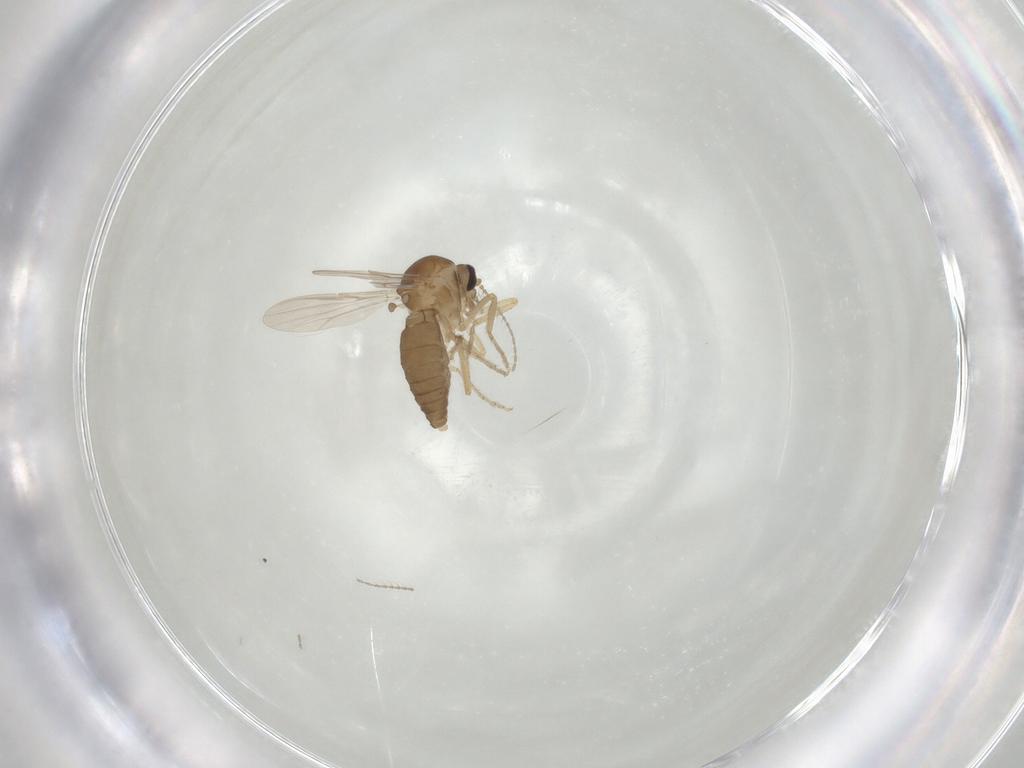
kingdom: Animalia
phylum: Arthropoda
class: Insecta
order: Diptera
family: Ceratopogonidae
